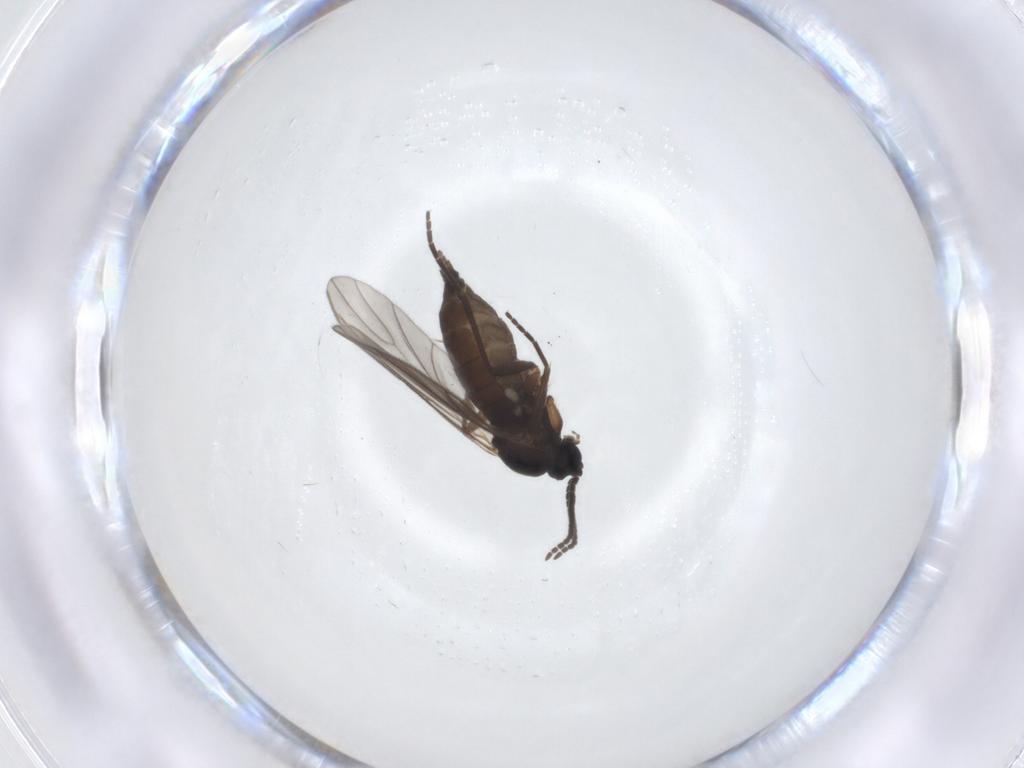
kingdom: Animalia
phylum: Arthropoda
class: Insecta
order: Diptera
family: Sciaridae
